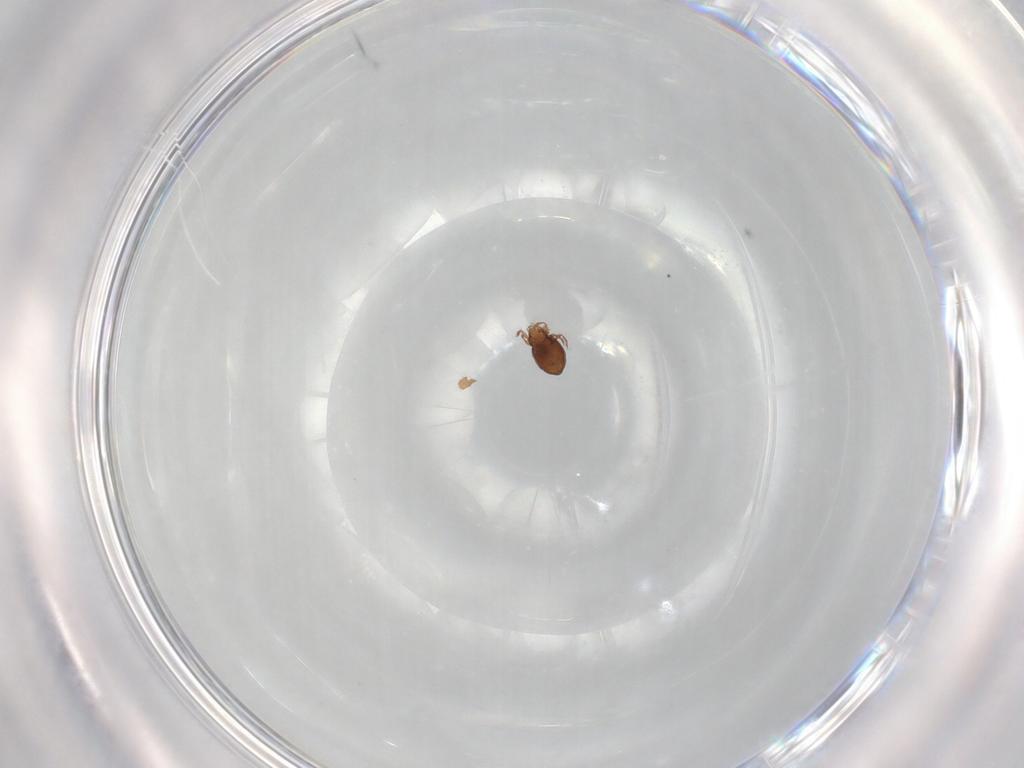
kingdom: Animalia
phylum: Arthropoda
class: Arachnida
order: Sarcoptiformes
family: Oribatulidae
